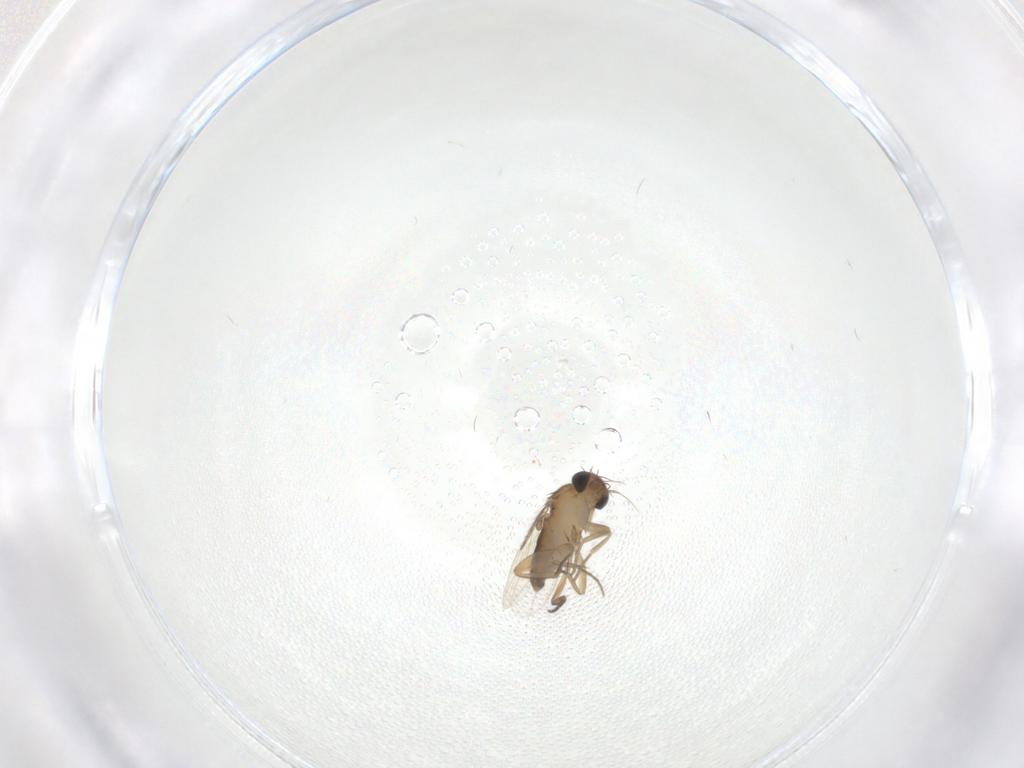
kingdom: Animalia
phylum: Arthropoda
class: Insecta
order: Diptera
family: Phoridae
